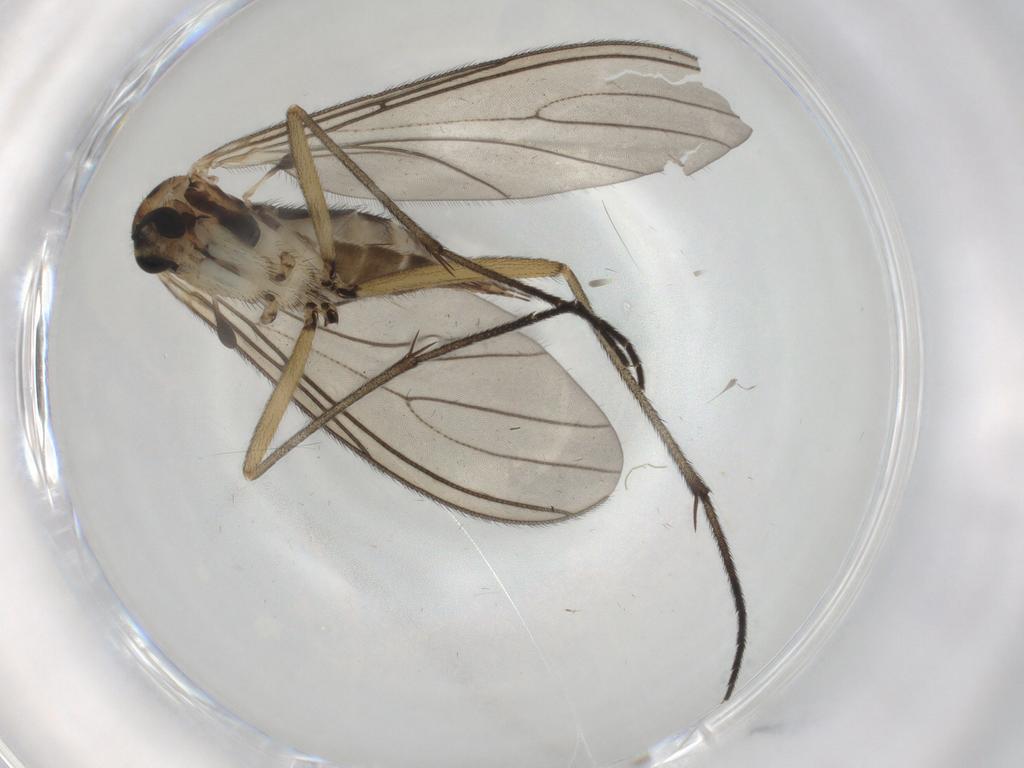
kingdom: Animalia
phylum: Arthropoda
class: Insecta
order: Diptera
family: Sciaridae
